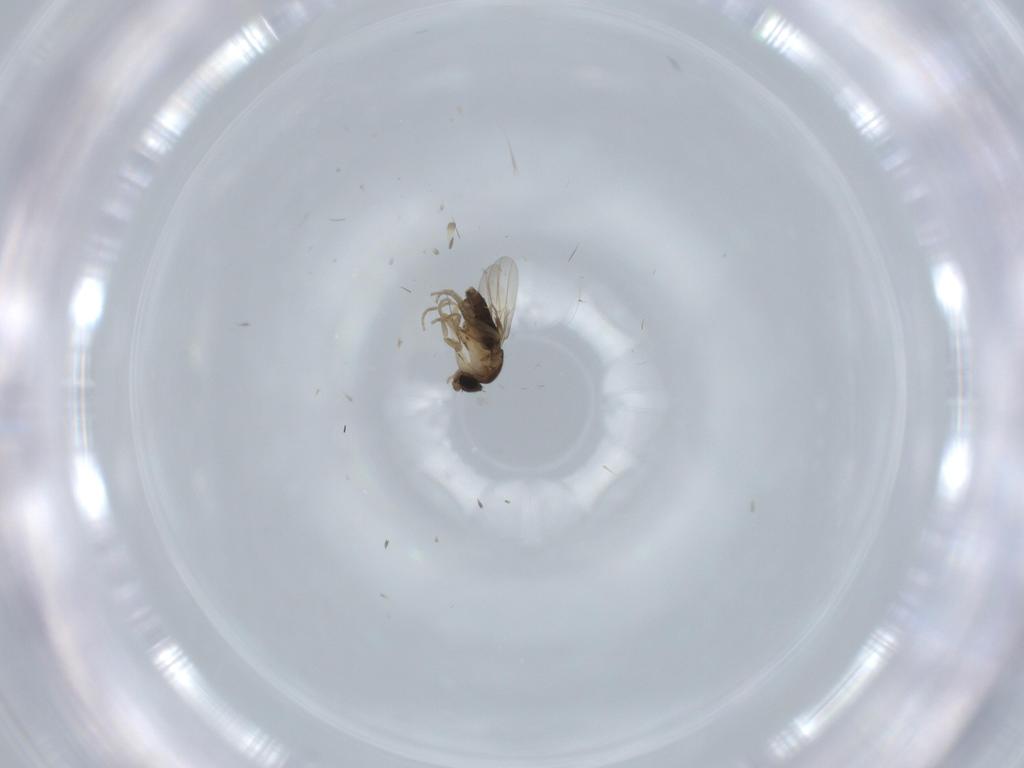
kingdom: Animalia
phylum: Arthropoda
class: Insecta
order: Diptera
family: Phoridae
